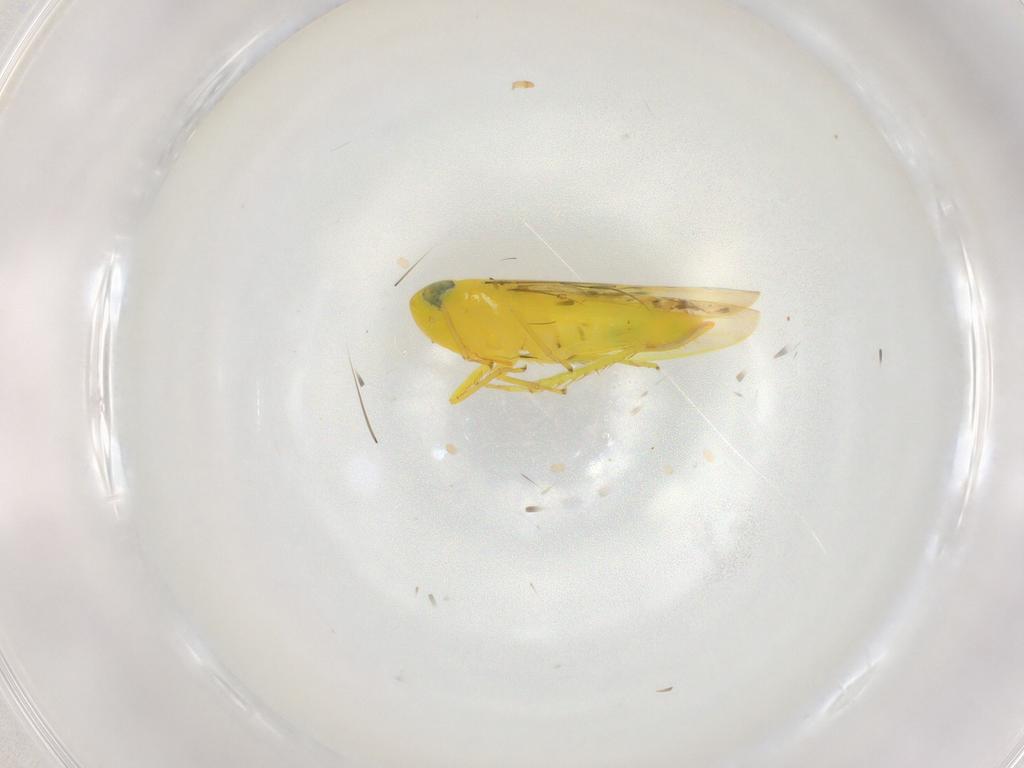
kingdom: Animalia
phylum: Arthropoda
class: Insecta
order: Hemiptera
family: Cicadellidae
